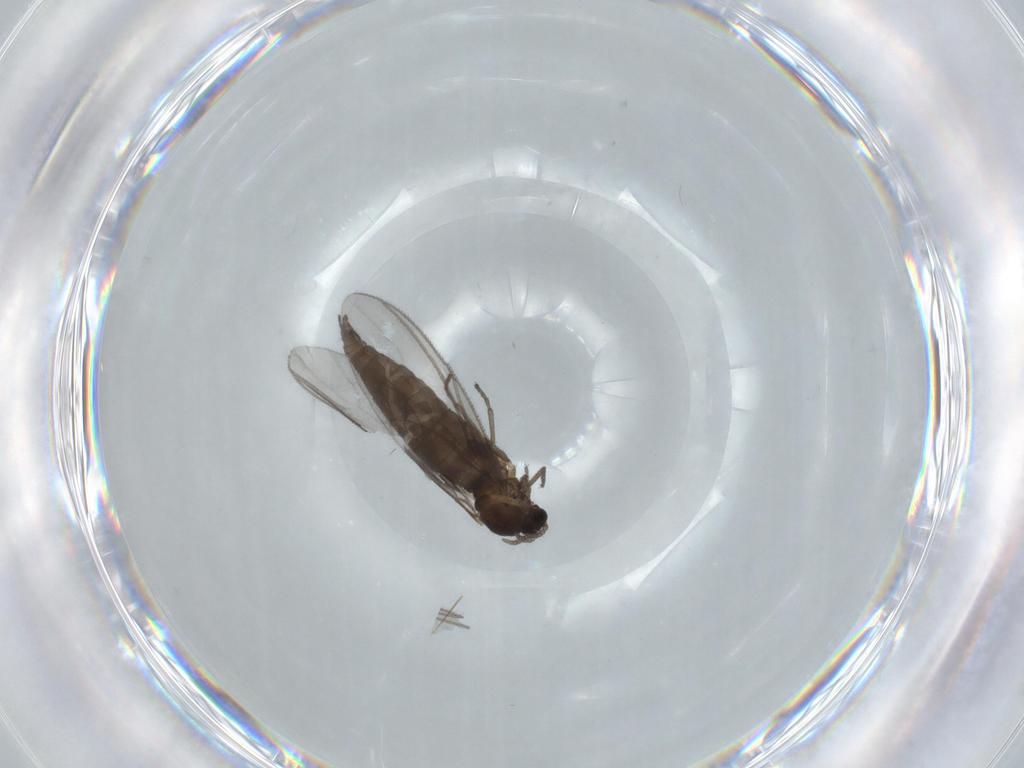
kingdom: Animalia
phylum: Arthropoda
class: Insecta
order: Diptera
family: Sciaridae
